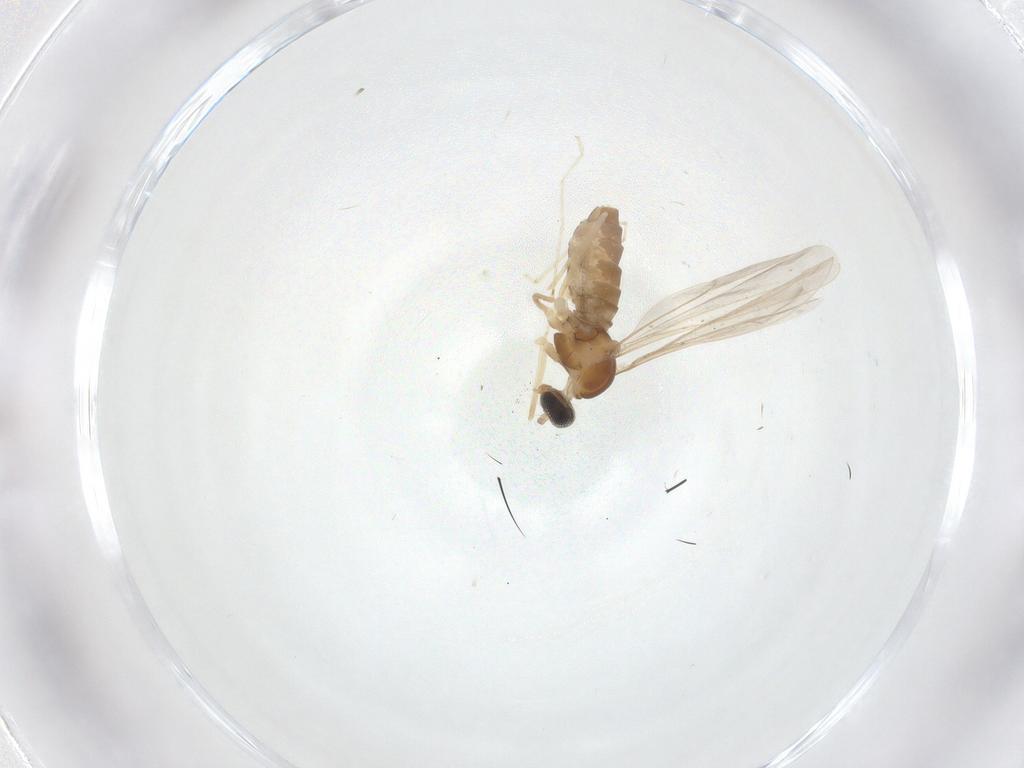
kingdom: Animalia
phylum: Arthropoda
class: Insecta
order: Diptera
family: Cecidomyiidae
